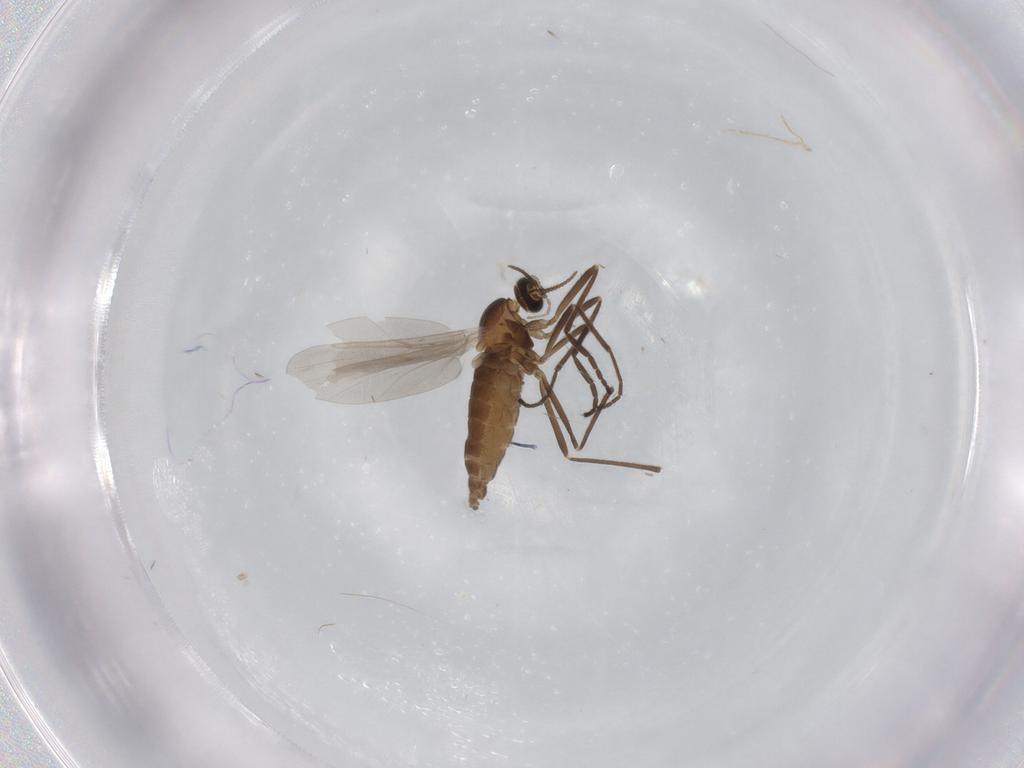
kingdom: Animalia
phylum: Arthropoda
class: Insecta
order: Diptera
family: Cecidomyiidae
